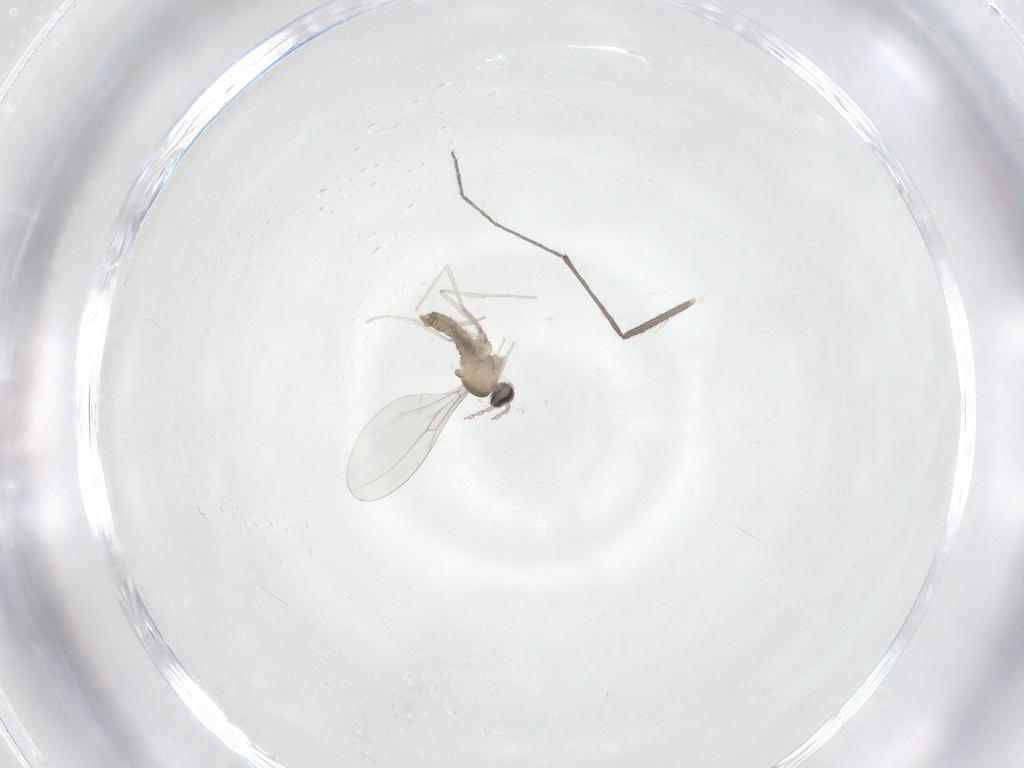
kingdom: Animalia
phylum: Arthropoda
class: Insecta
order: Diptera
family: Cecidomyiidae
